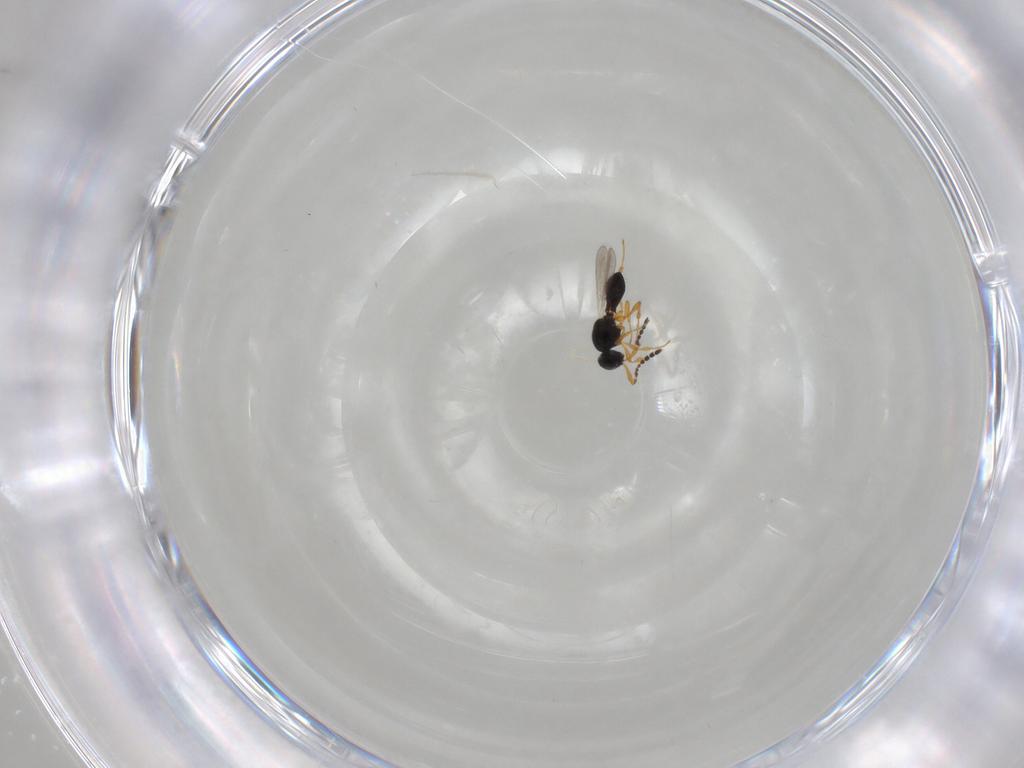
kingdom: Animalia
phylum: Arthropoda
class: Insecta
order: Hymenoptera
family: Platygastridae
